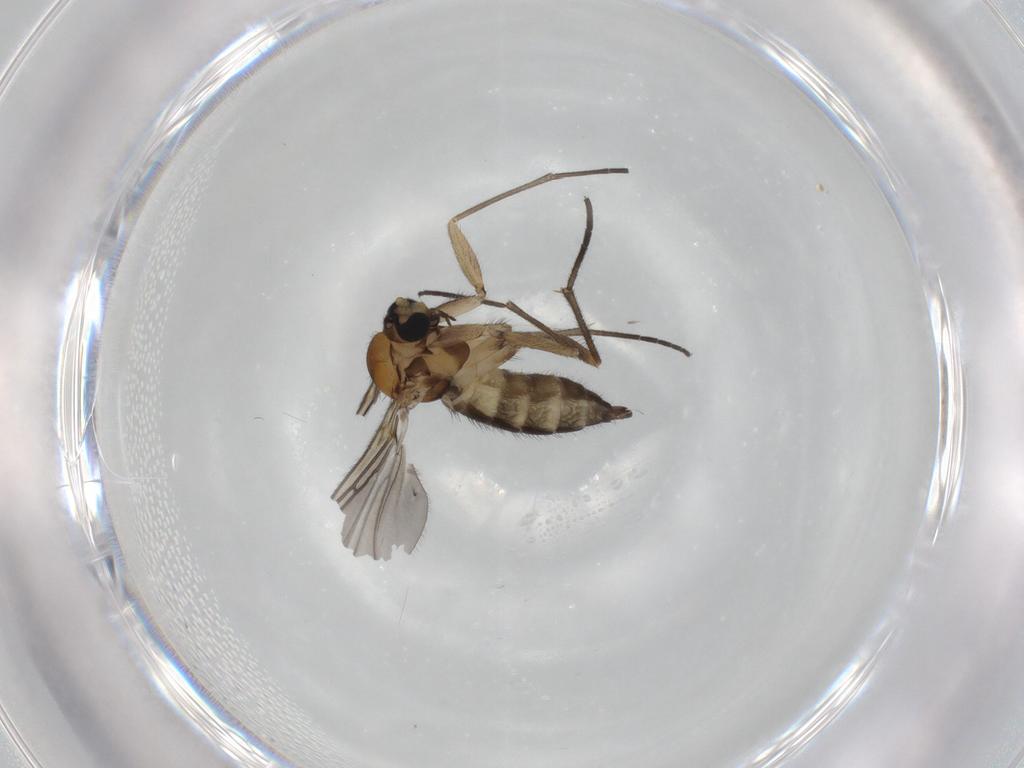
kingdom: Animalia
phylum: Arthropoda
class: Insecta
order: Diptera
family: Sciaridae
